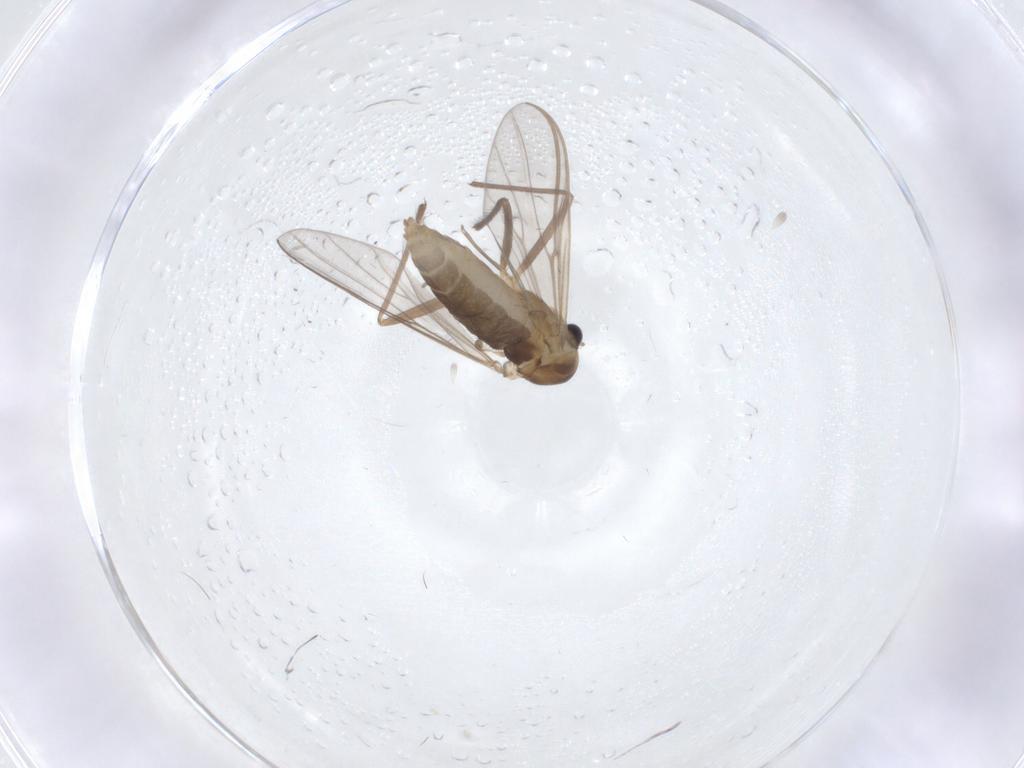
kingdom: Animalia
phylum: Arthropoda
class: Insecta
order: Diptera
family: Chironomidae
